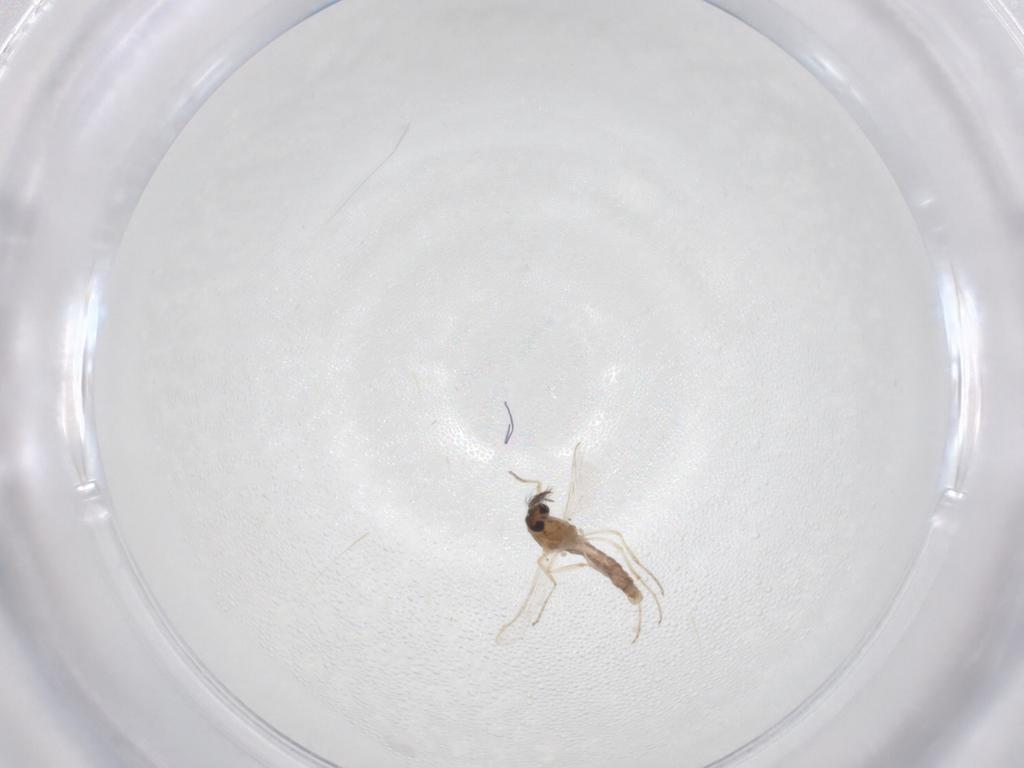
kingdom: Animalia
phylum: Arthropoda
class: Insecta
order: Diptera
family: Ceratopogonidae
